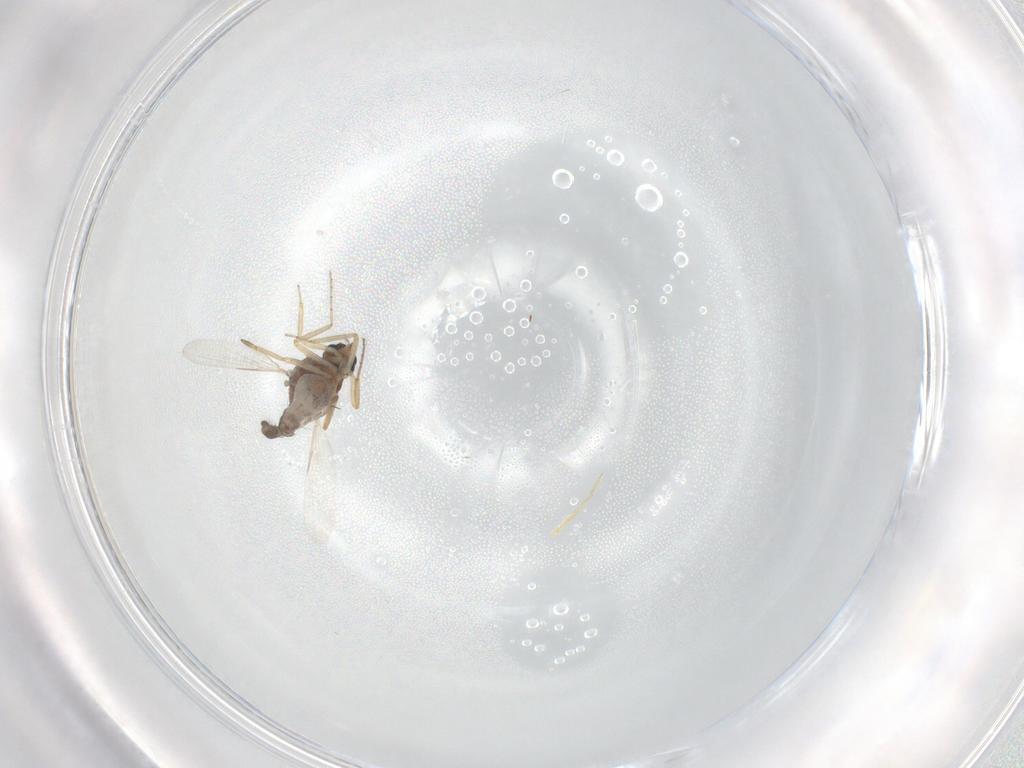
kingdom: Animalia
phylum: Arthropoda
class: Insecta
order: Diptera
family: Ceratopogonidae
